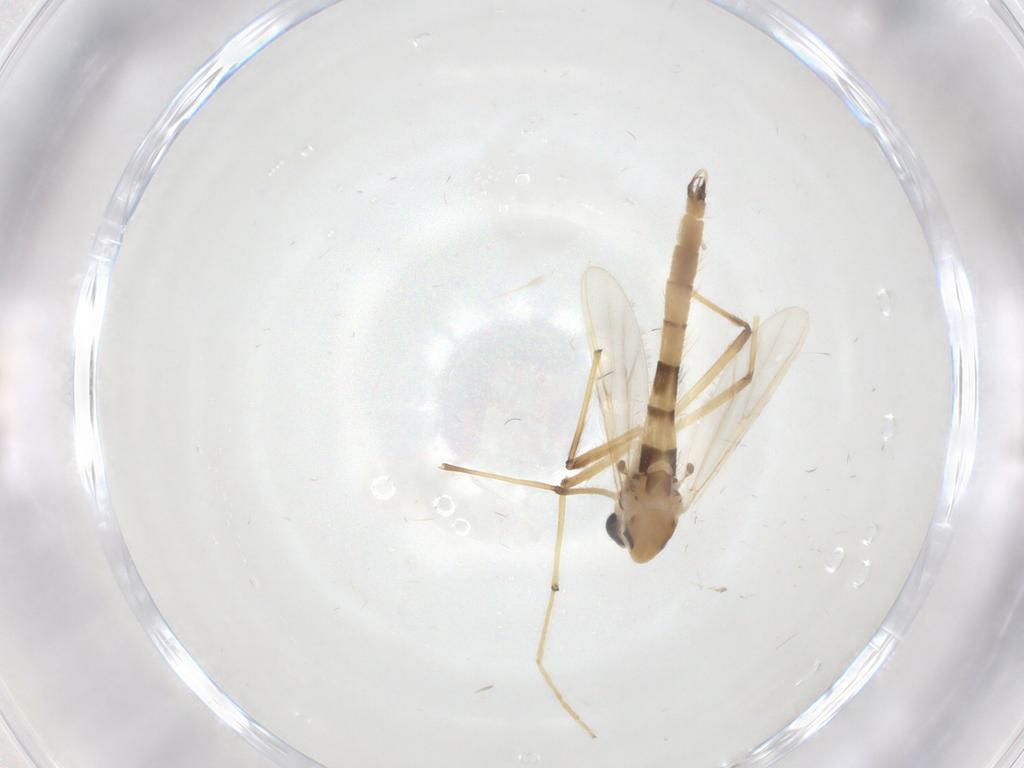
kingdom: Animalia
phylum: Arthropoda
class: Insecta
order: Diptera
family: Chironomidae
